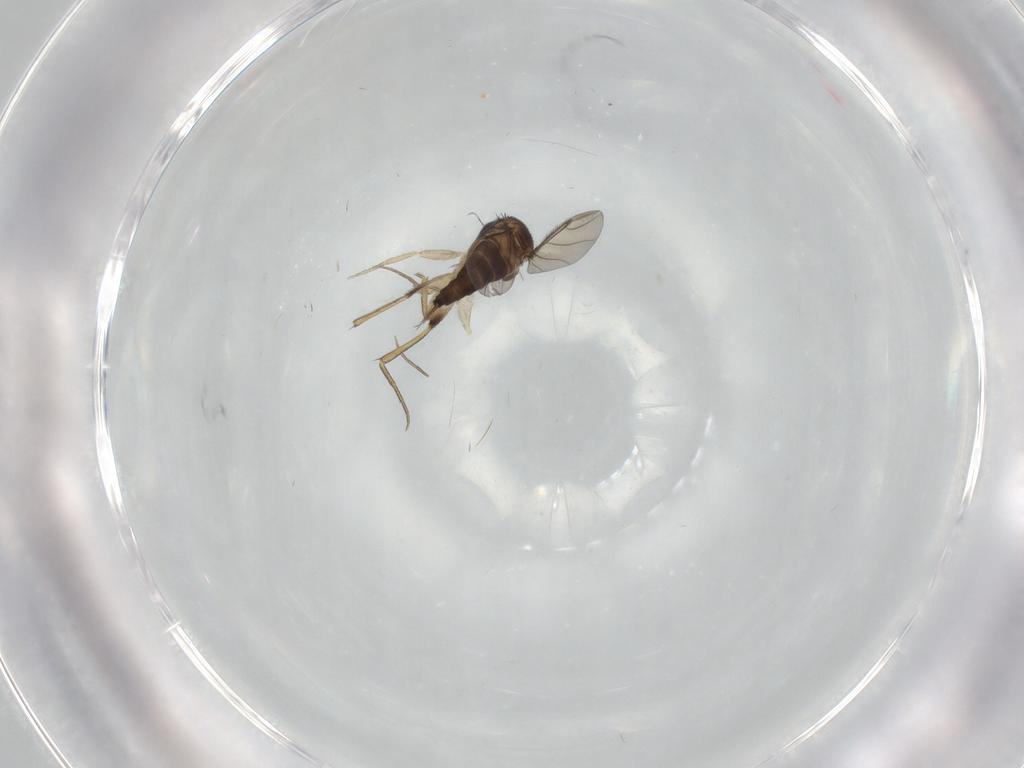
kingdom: Animalia
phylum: Arthropoda
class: Insecta
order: Diptera
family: Phoridae
